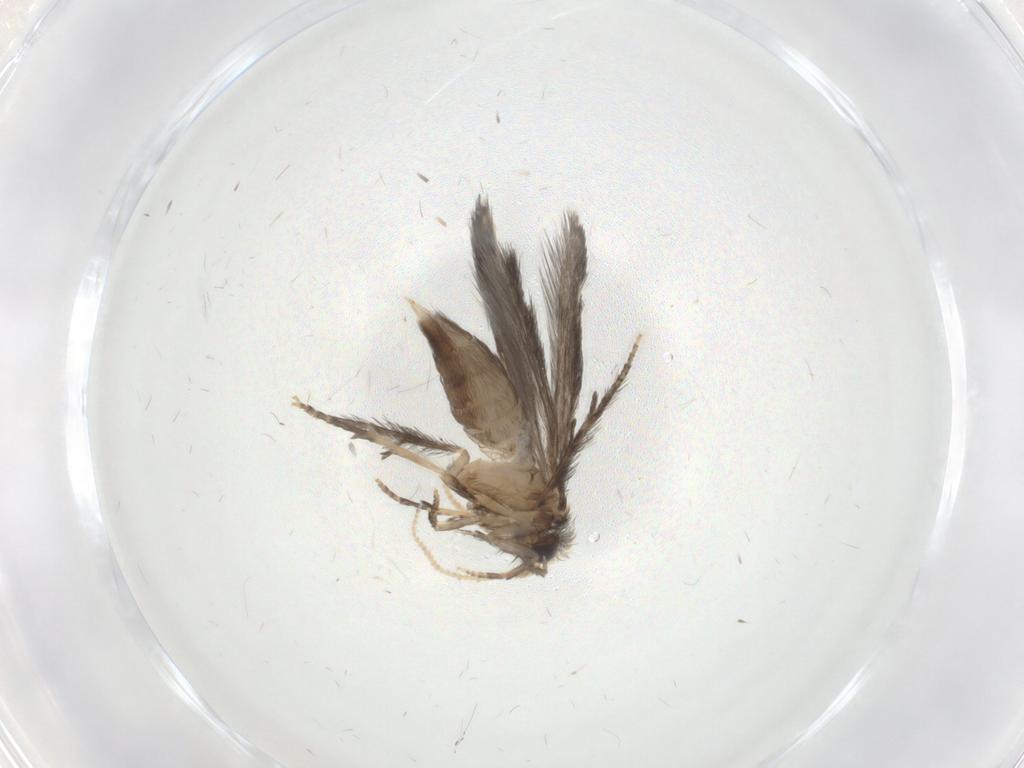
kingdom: Animalia
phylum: Arthropoda
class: Insecta
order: Trichoptera
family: Hydroptilidae
